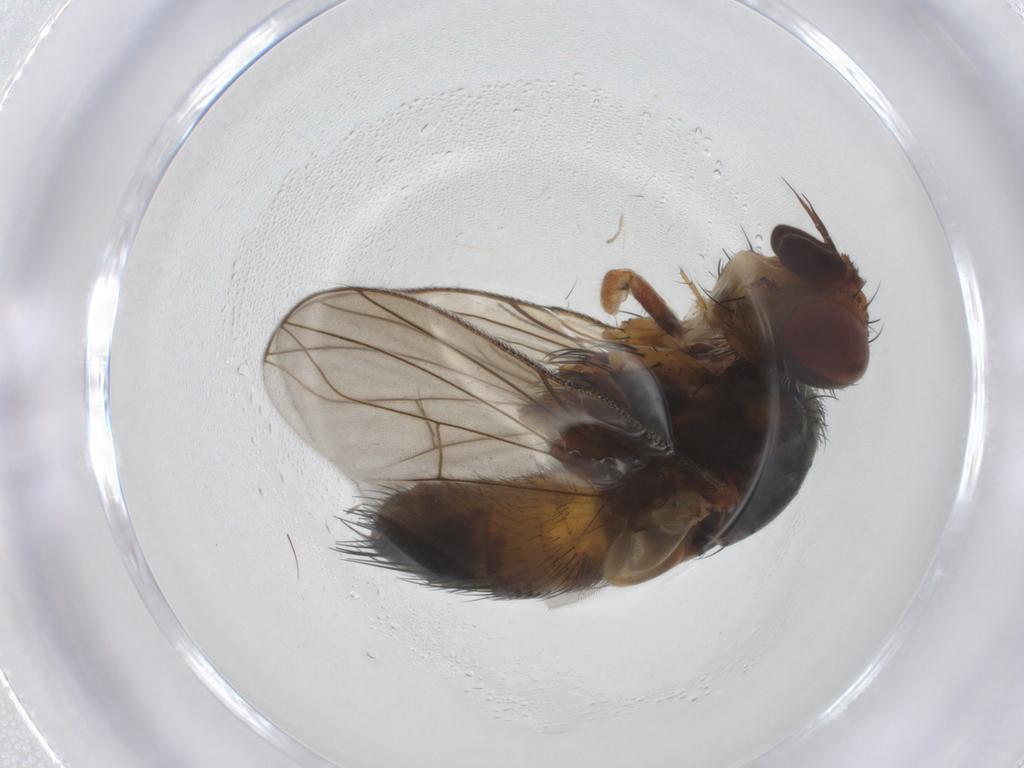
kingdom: Animalia
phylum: Arthropoda
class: Insecta
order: Diptera
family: Tachinidae
